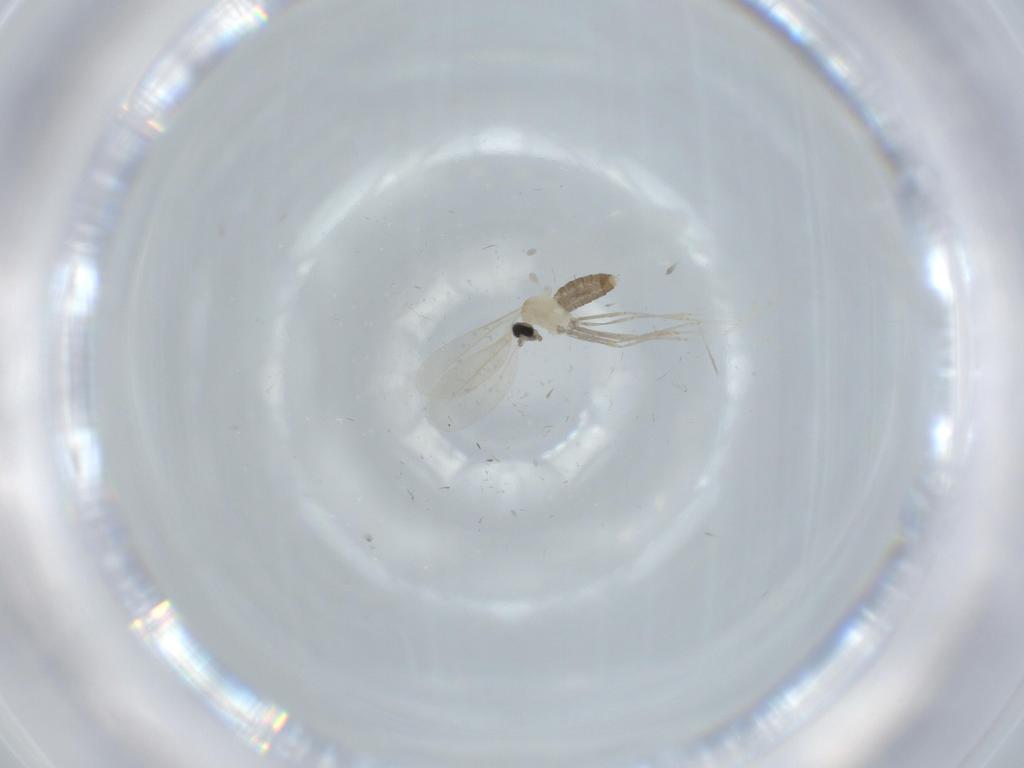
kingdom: Animalia
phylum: Arthropoda
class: Insecta
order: Diptera
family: Cecidomyiidae
